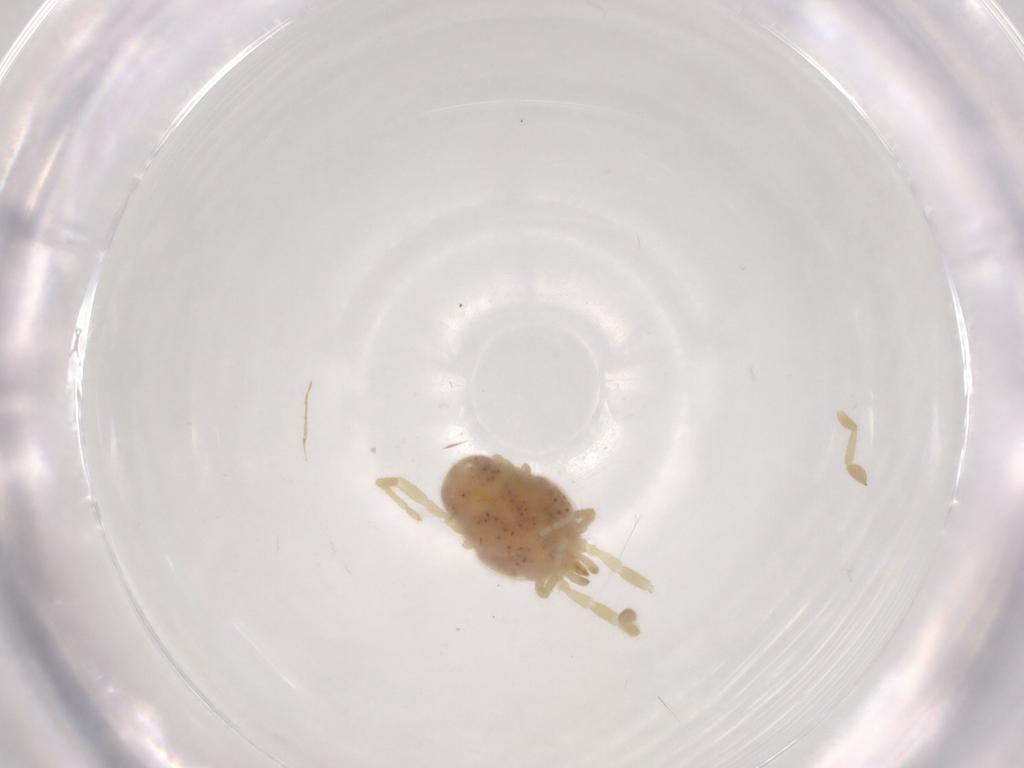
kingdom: Animalia
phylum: Arthropoda
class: Arachnida
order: Trombidiformes
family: Erythraeidae
